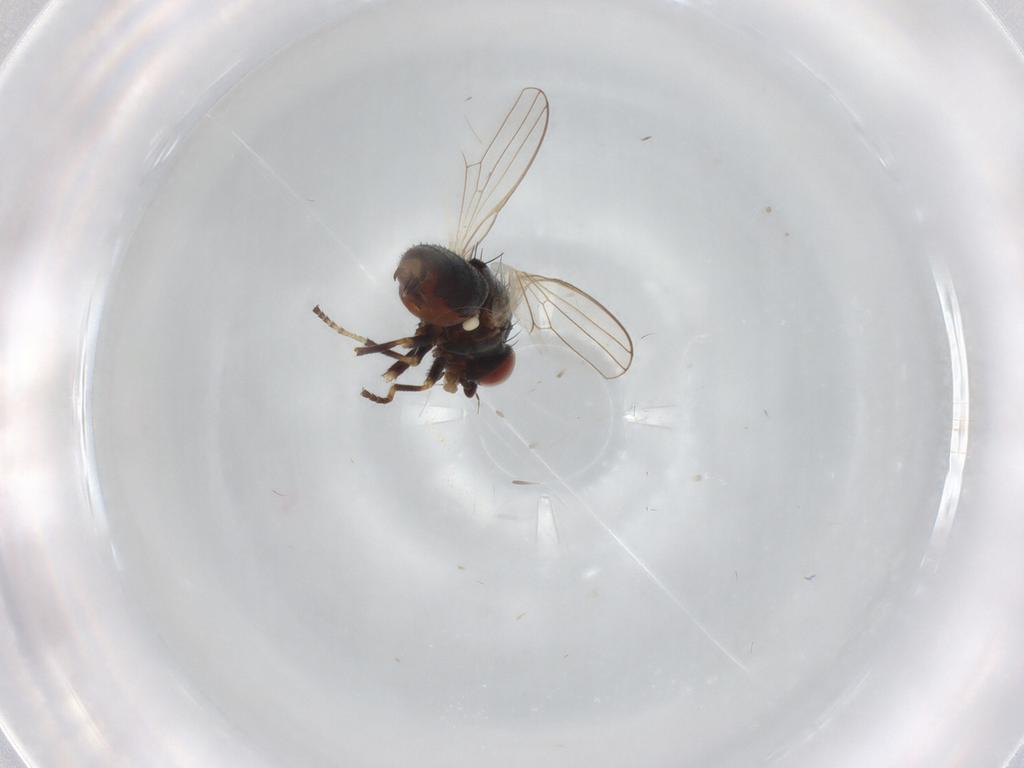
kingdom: Animalia
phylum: Arthropoda
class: Insecta
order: Diptera
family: Chamaemyiidae
